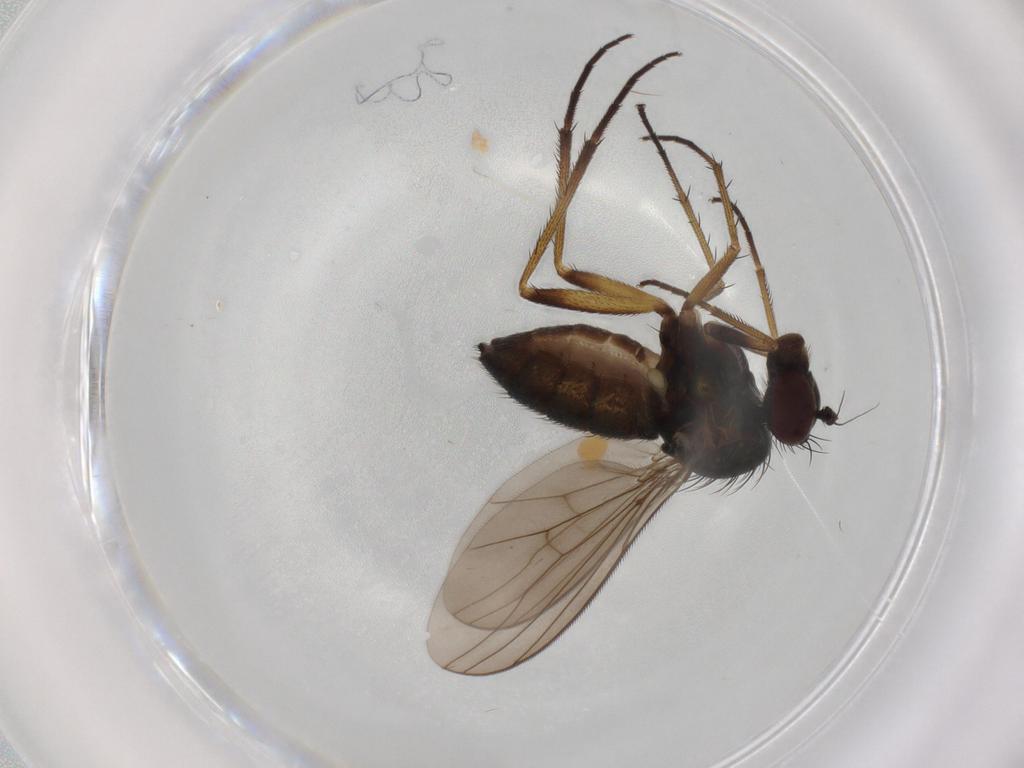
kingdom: Animalia
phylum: Arthropoda
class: Insecta
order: Diptera
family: Dolichopodidae
